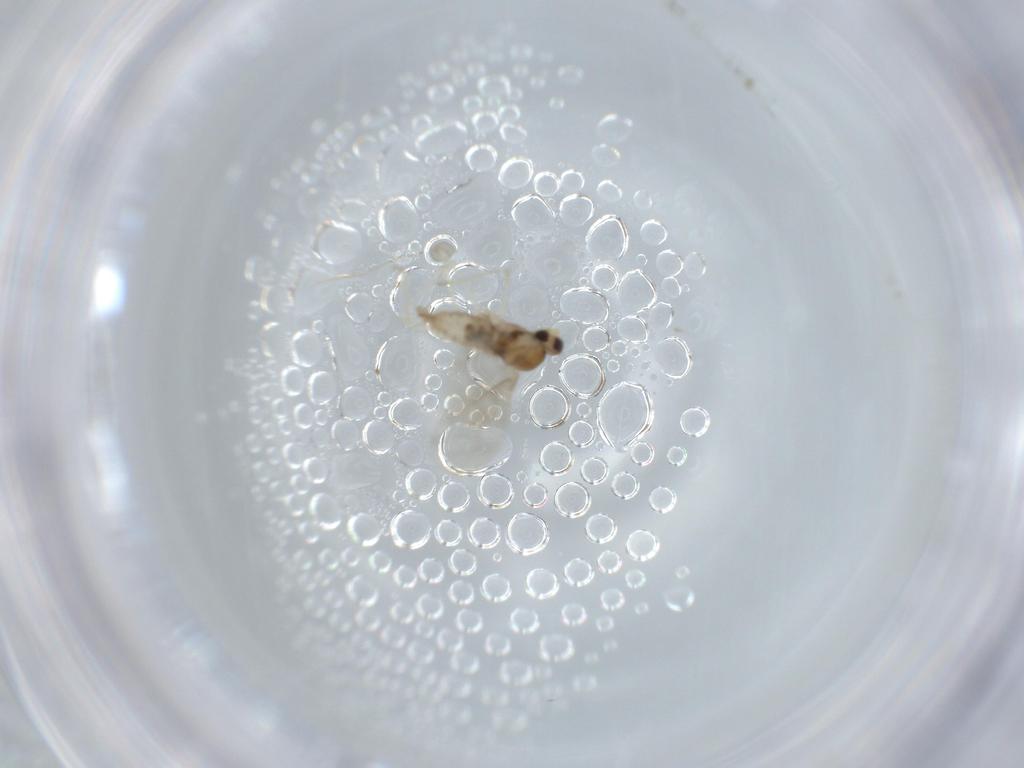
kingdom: Animalia
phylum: Arthropoda
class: Insecta
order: Diptera
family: Cecidomyiidae
